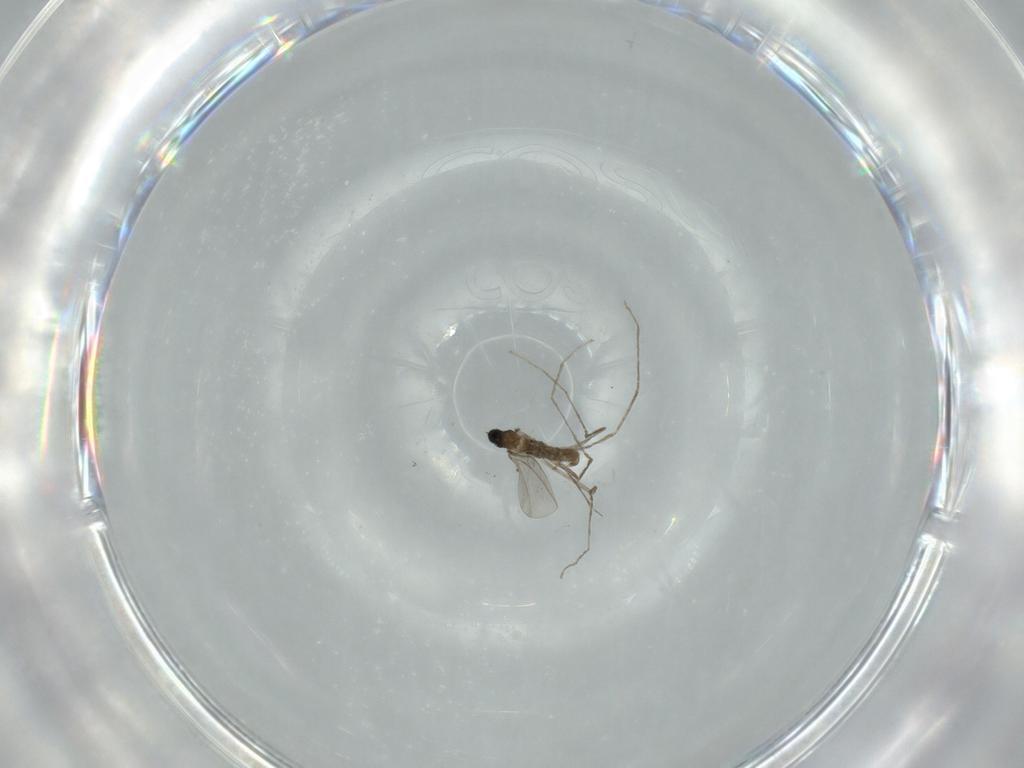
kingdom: Animalia
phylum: Arthropoda
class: Insecta
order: Diptera
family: Cecidomyiidae
